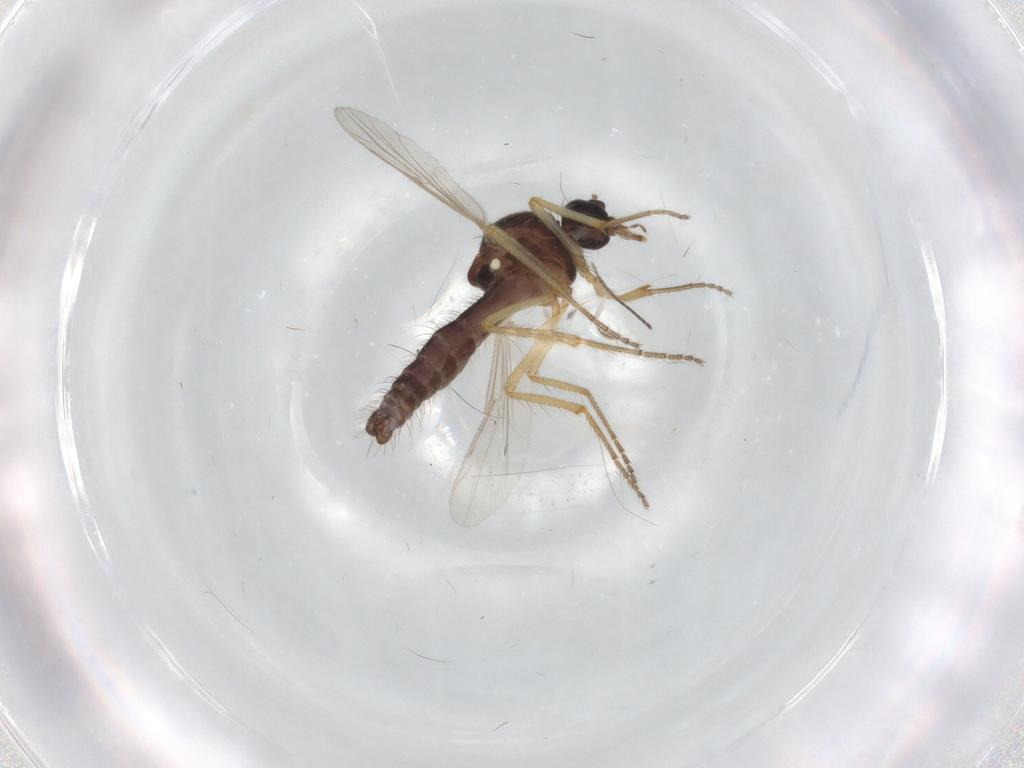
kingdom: Animalia
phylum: Arthropoda
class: Insecta
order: Diptera
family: Ceratopogonidae
